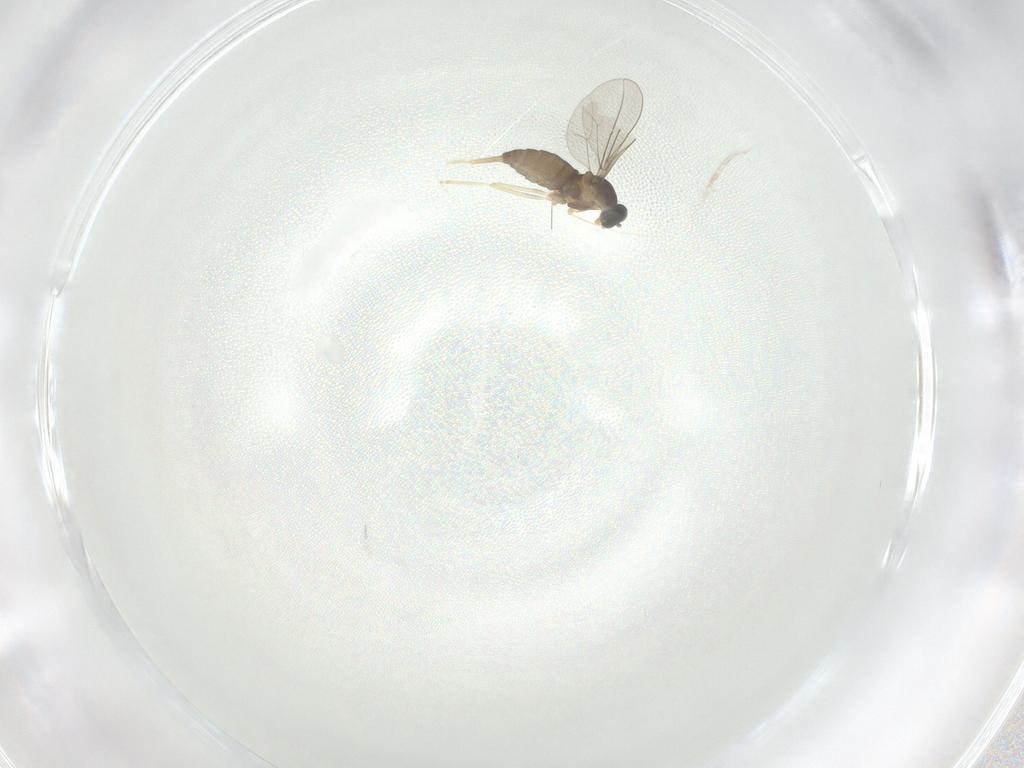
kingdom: Animalia
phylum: Arthropoda
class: Insecta
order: Diptera
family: Cecidomyiidae
